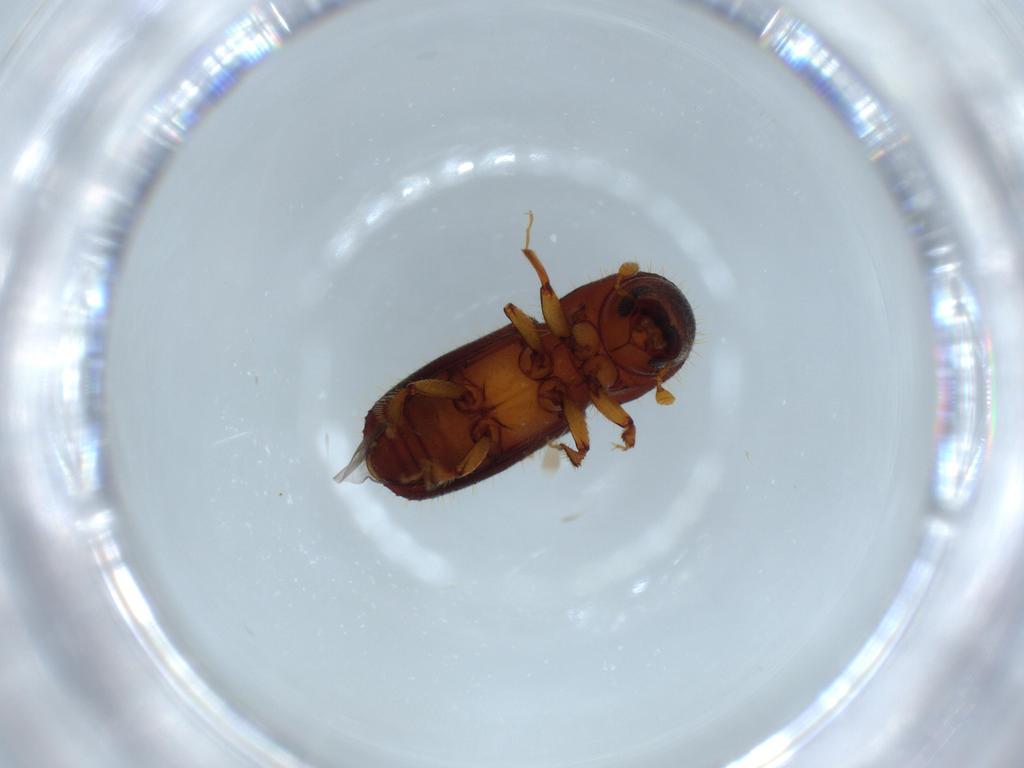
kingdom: Animalia
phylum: Arthropoda
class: Insecta
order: Coleoptera
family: Curculionidae
